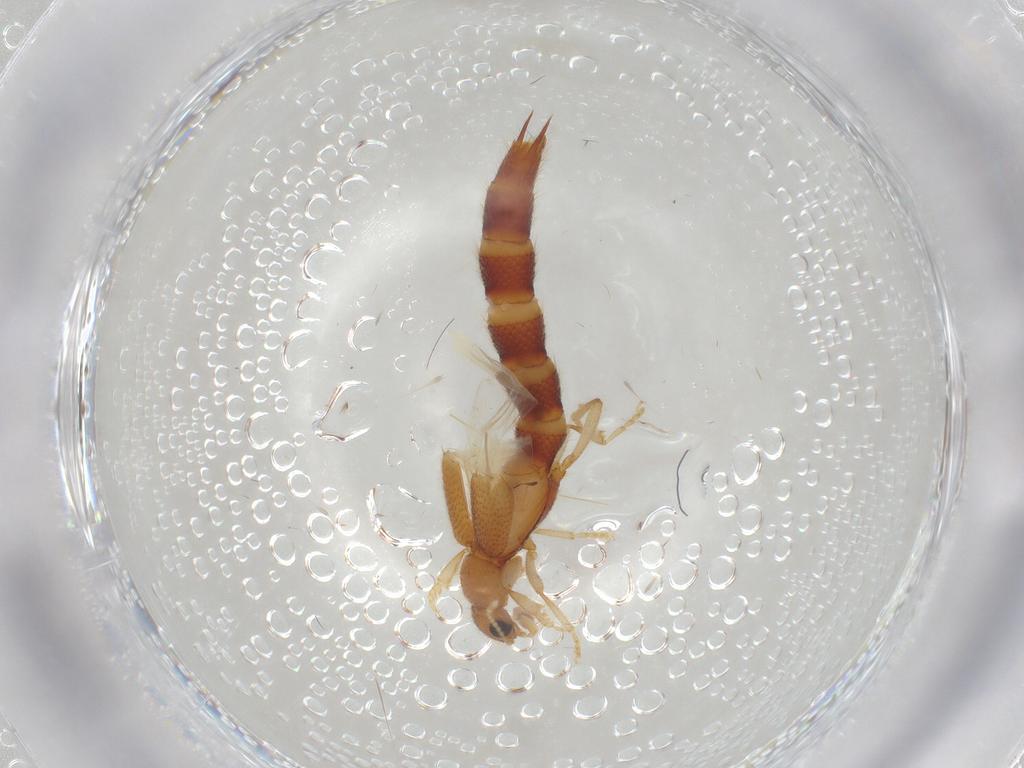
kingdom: Animalia
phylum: Arthropoda
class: Insecta
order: Coleoptera
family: Staphylinidae
